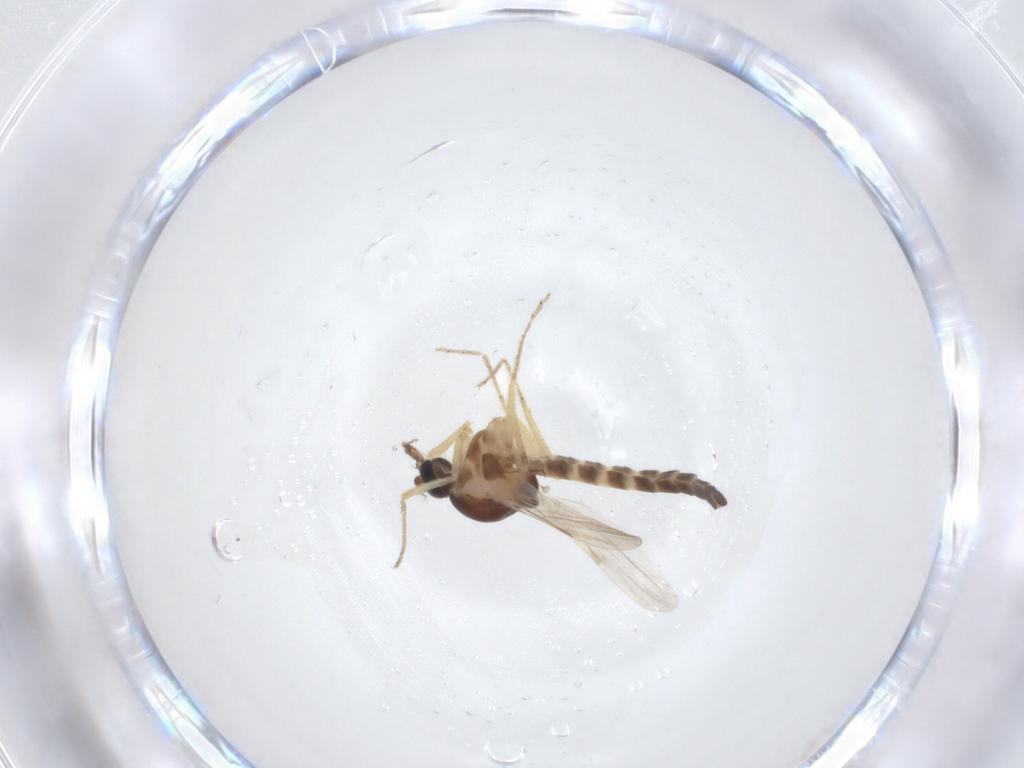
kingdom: Animalia
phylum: Arthropoda
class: Insecta
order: Diptera
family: Ceratopogonidae
